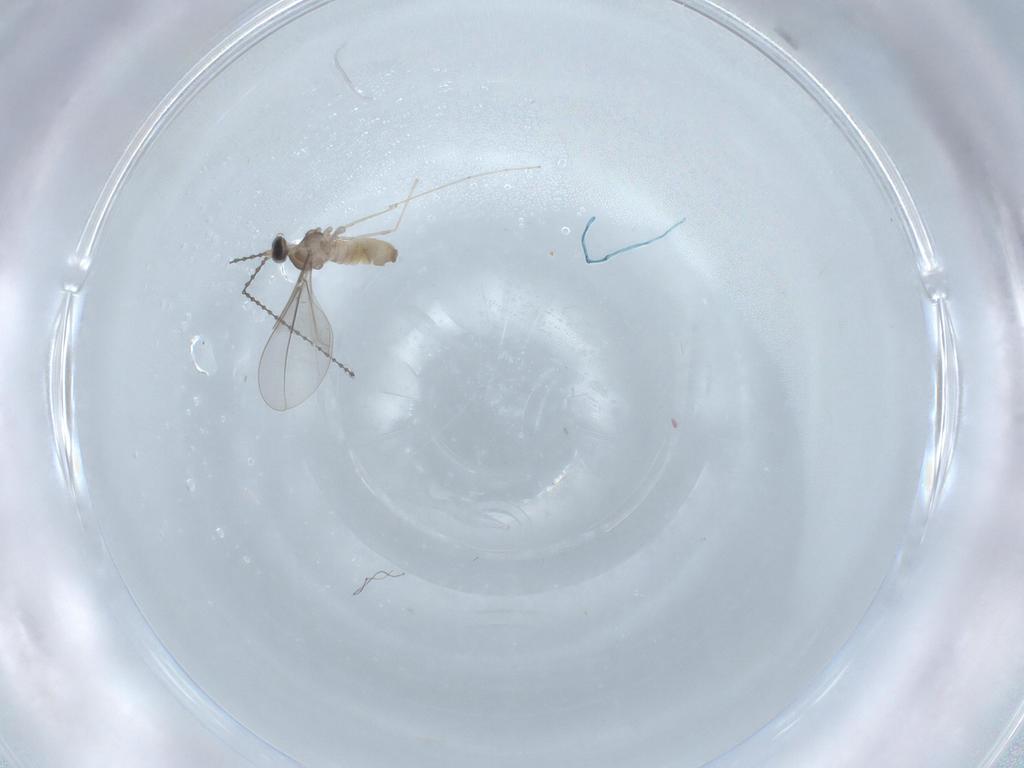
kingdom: Animalia
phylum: Arthropoda
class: Insecta
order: Diptera
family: Cecidomyiidae
